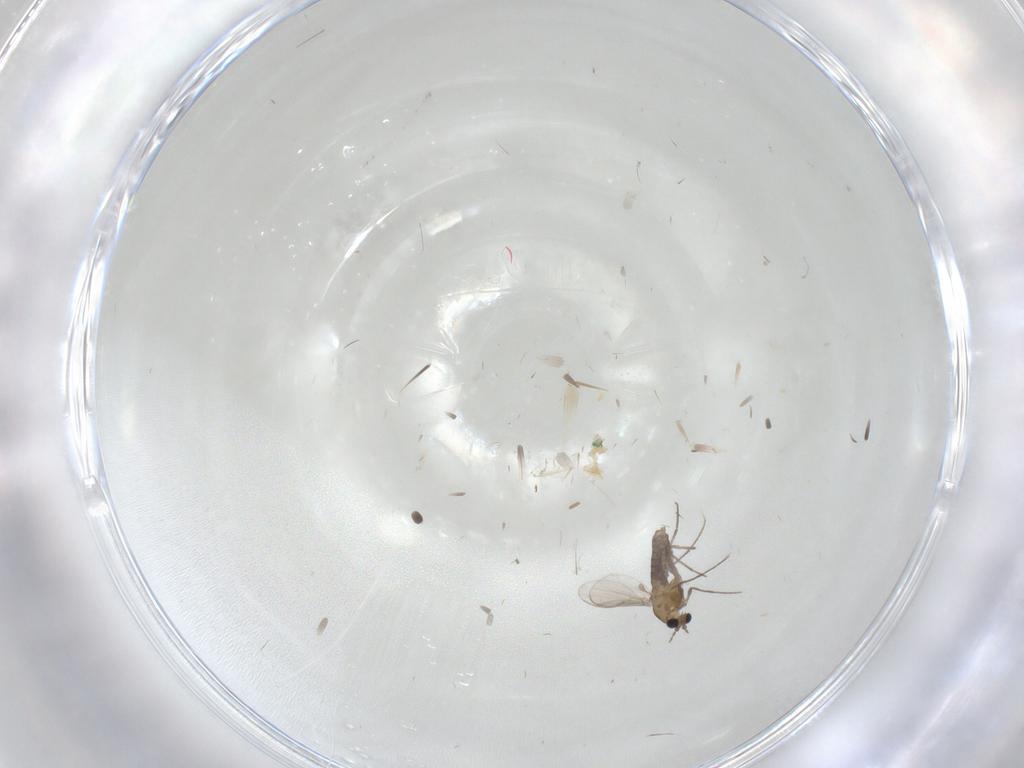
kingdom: Animalia
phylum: Arthropoda
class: Insecta
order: Diptera
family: Chironomidae
